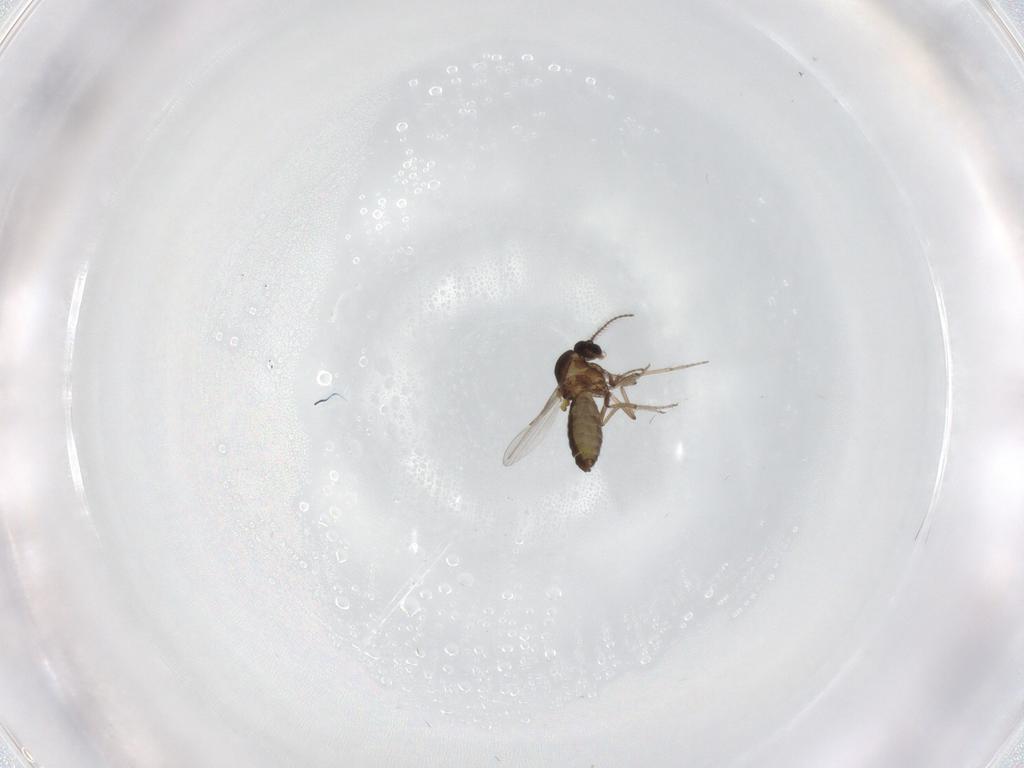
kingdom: Animalia
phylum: Arthropoda
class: Insecta
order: Diptera
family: Ceratopogonidae
